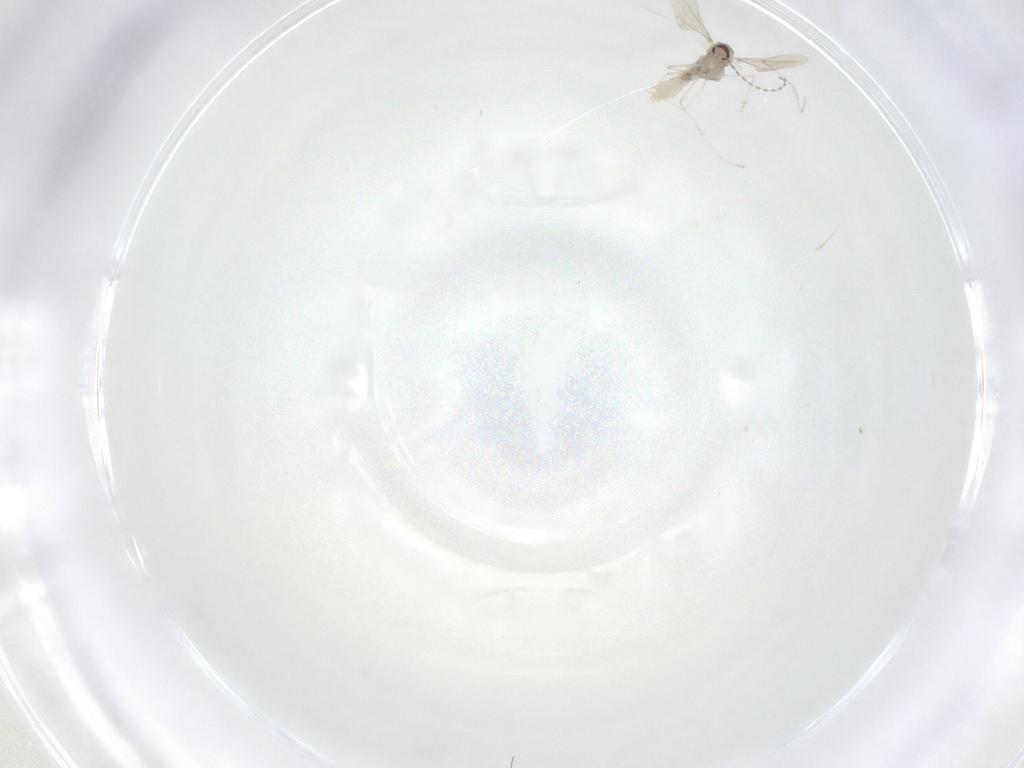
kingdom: Animalia
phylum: Arthropoda
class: Insecta
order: Diptera
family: Cecidomyiidae
